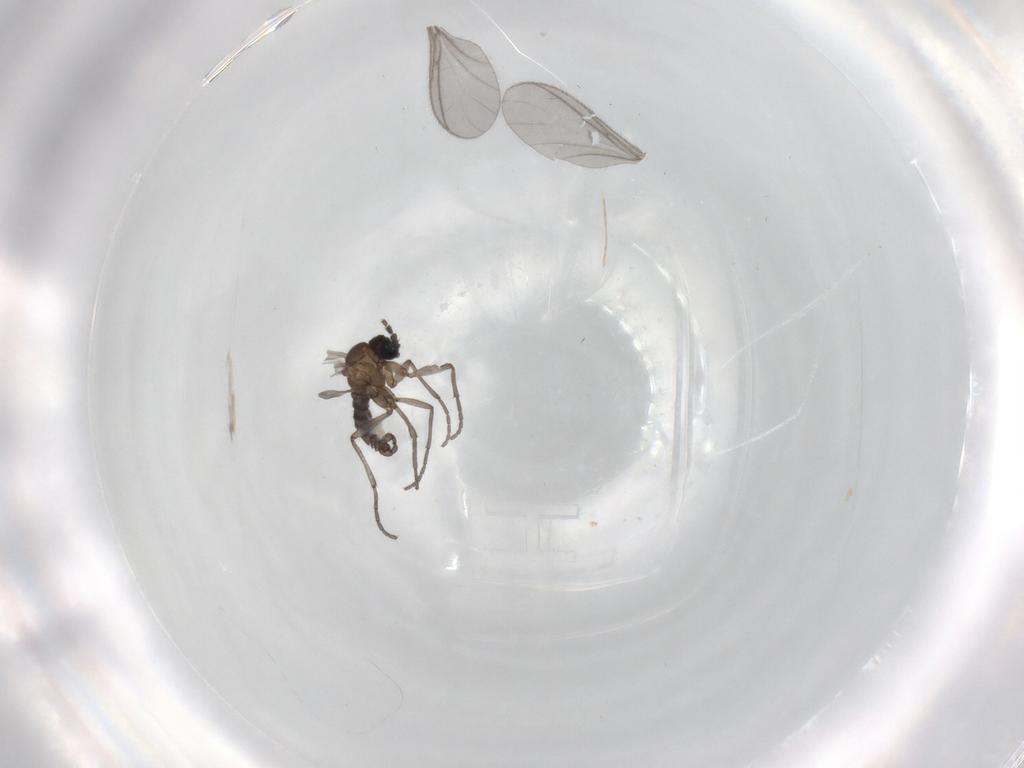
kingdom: Animalia
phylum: Arthropoda
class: Insecta
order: Diptera
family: Sciaridae
